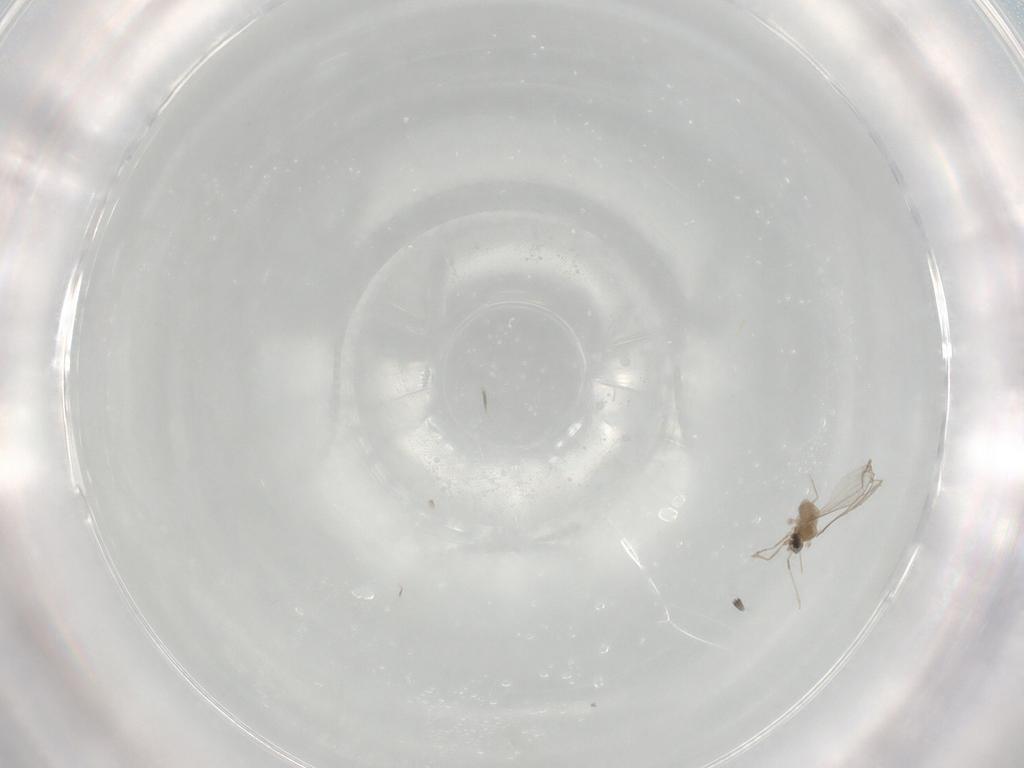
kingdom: Animalia
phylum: Arthropoda
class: Insecta
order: Diptera
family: Cecidomyiidae
